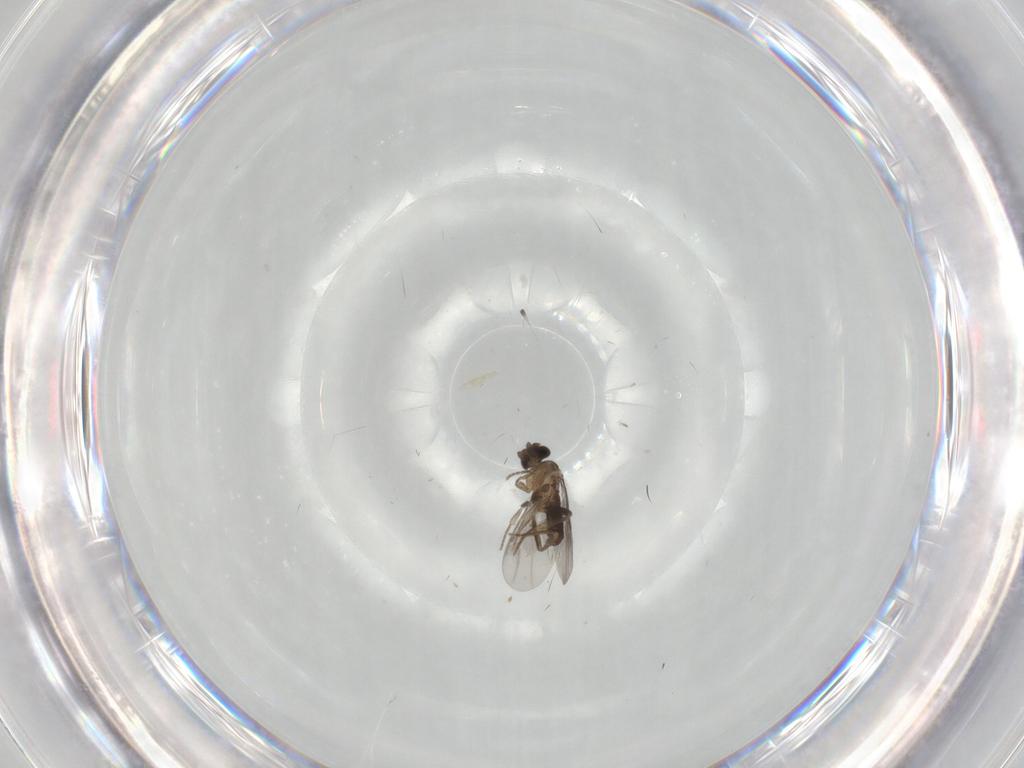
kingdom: Animalia
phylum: Arthropoda
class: Insecta
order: Diptera
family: Phoridae
